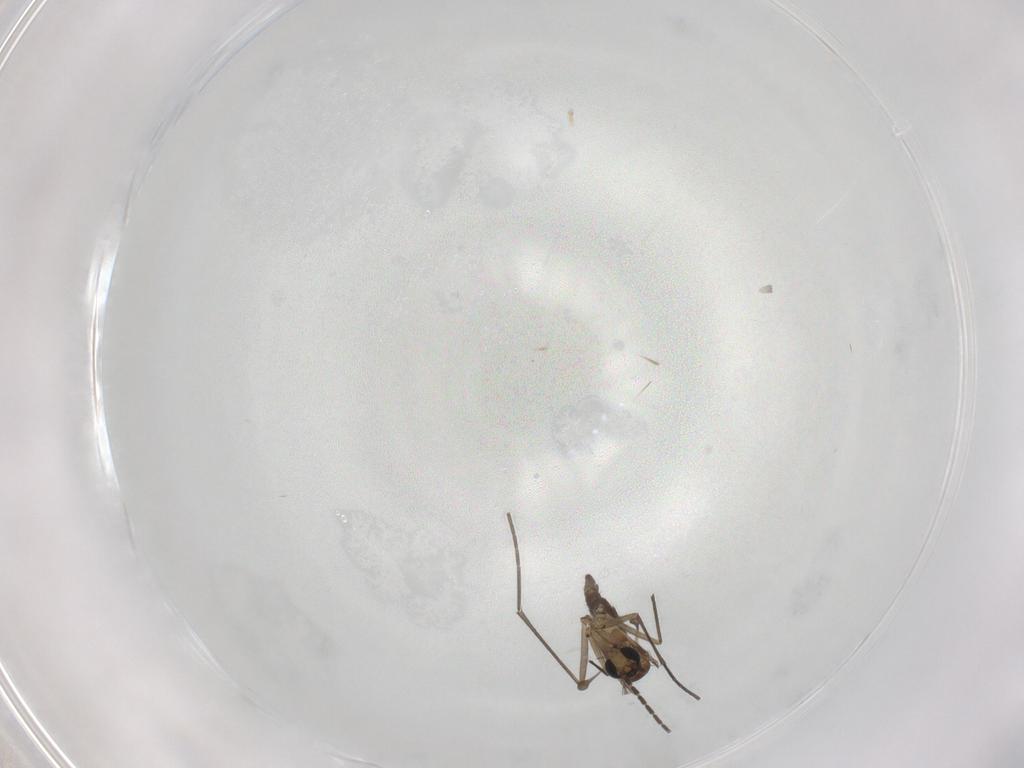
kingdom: Animalia
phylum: Arthropoda
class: Insecta
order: Diptera
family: Sciaridae
